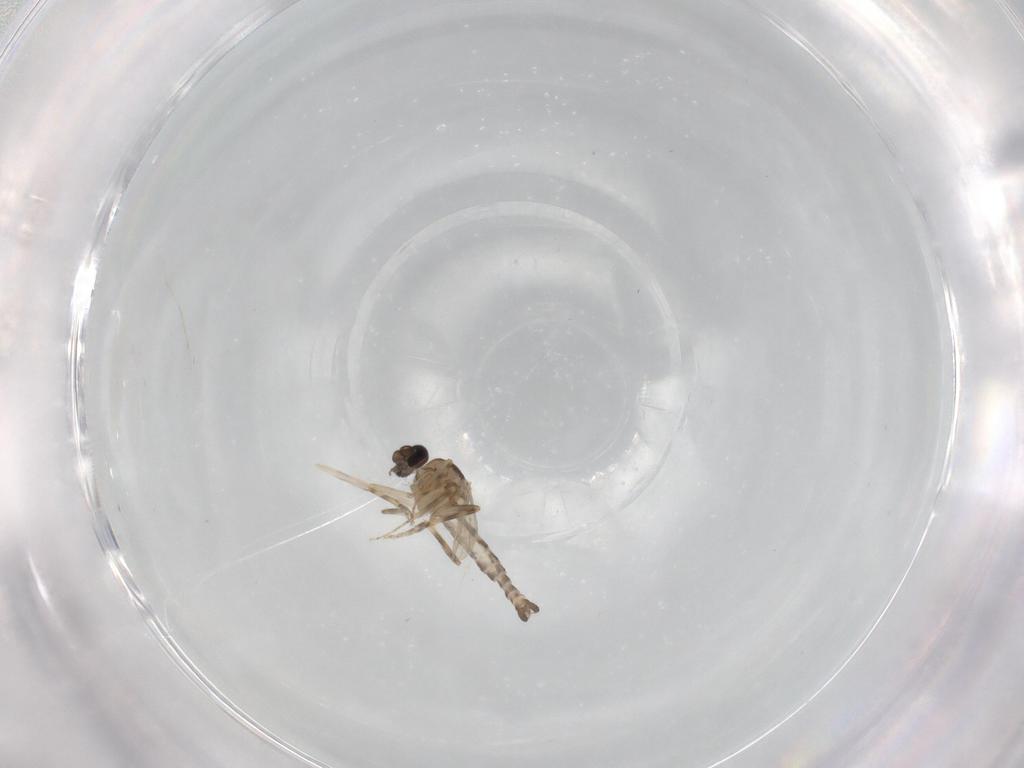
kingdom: Animalia
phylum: Arthropoda
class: Insecta
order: Diptera
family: Ceratopogonidae
